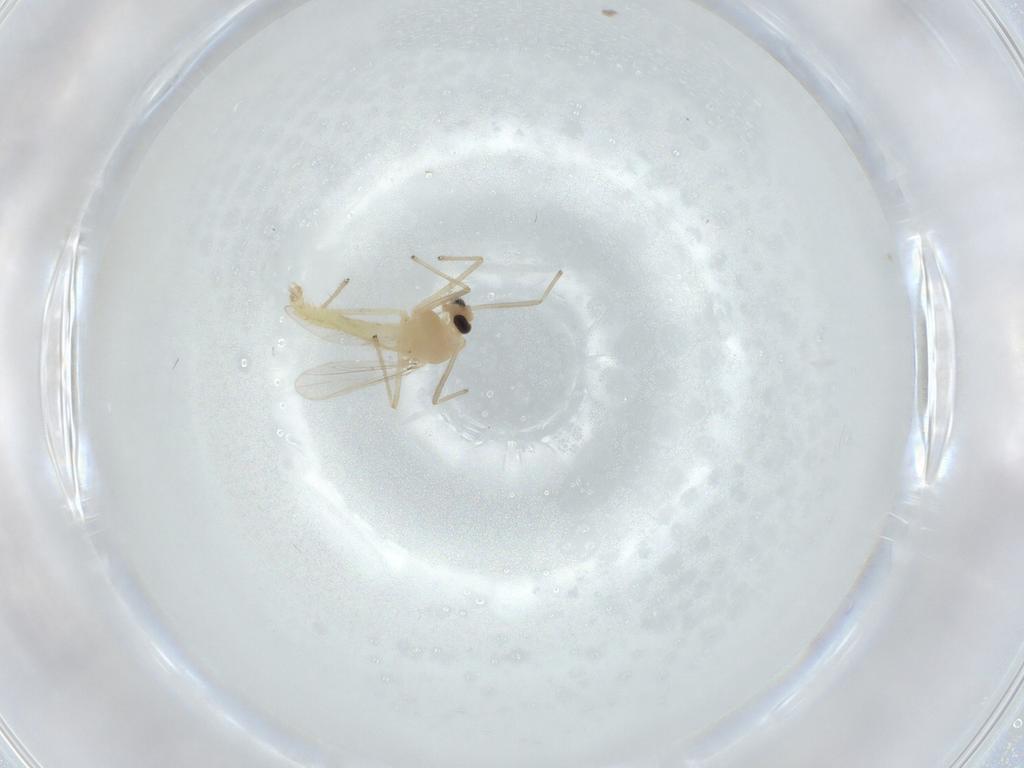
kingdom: Animalia
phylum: Arthropoda
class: Insecta
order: Diptera
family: Chironomidae
